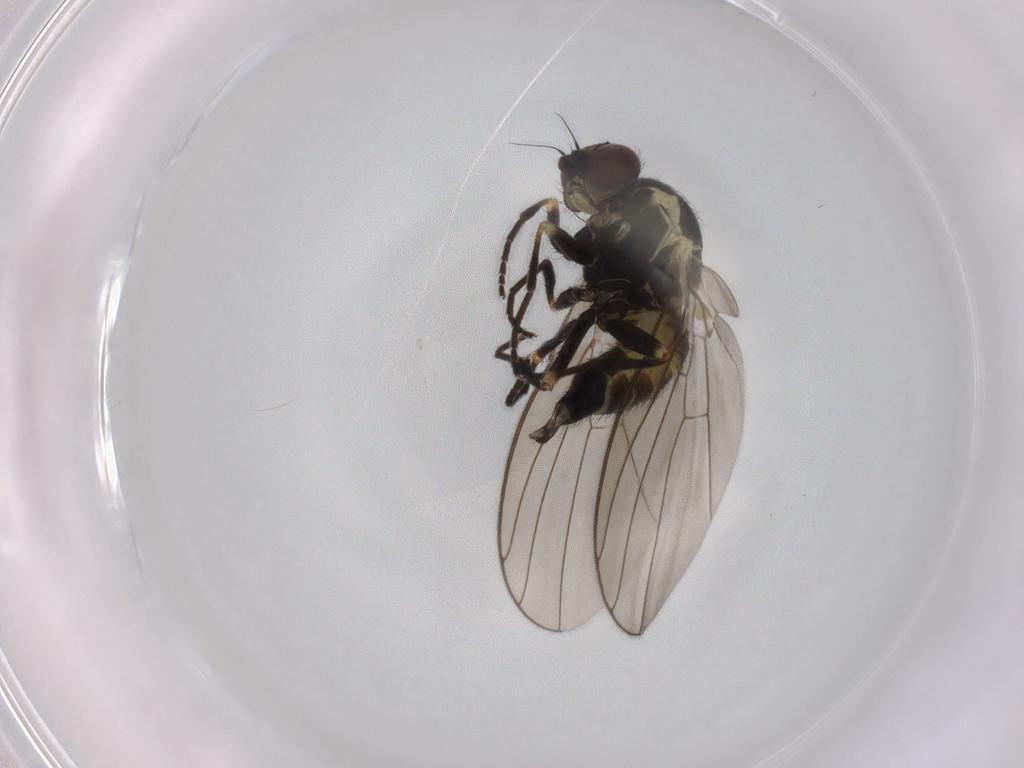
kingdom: Animalia
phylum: Arthropoda
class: Insecta
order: Diptera
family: Agromyzidae
